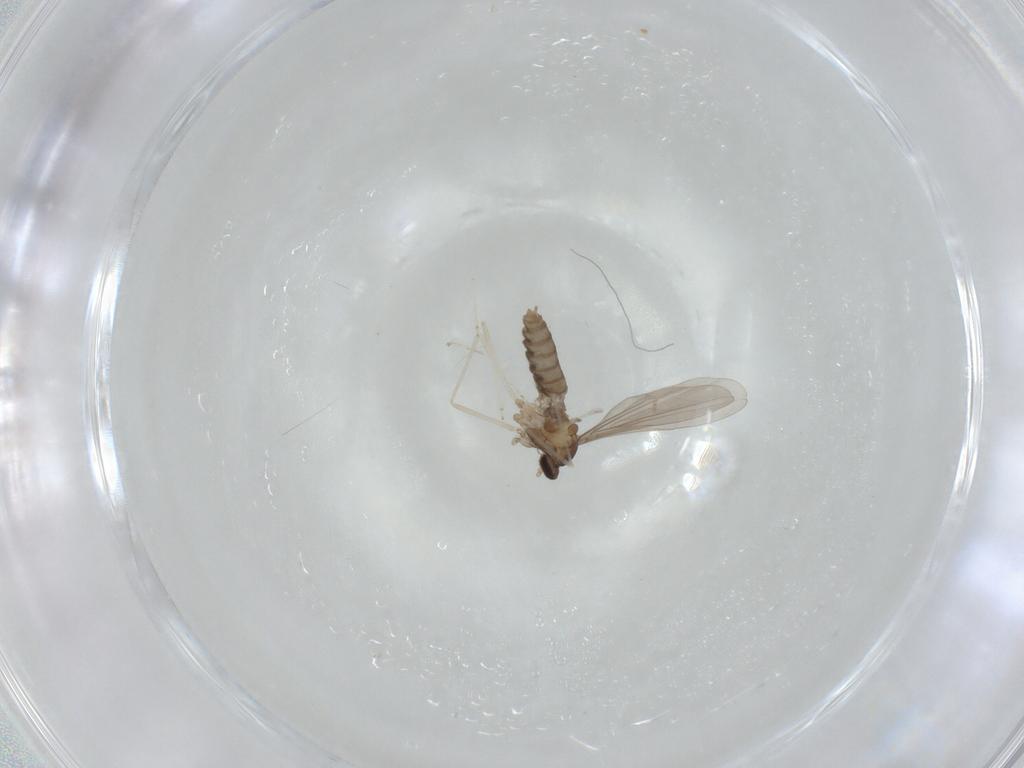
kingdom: Animalia
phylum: Arthropoda
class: Insecta
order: Diptera
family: Cecidomyiidae
